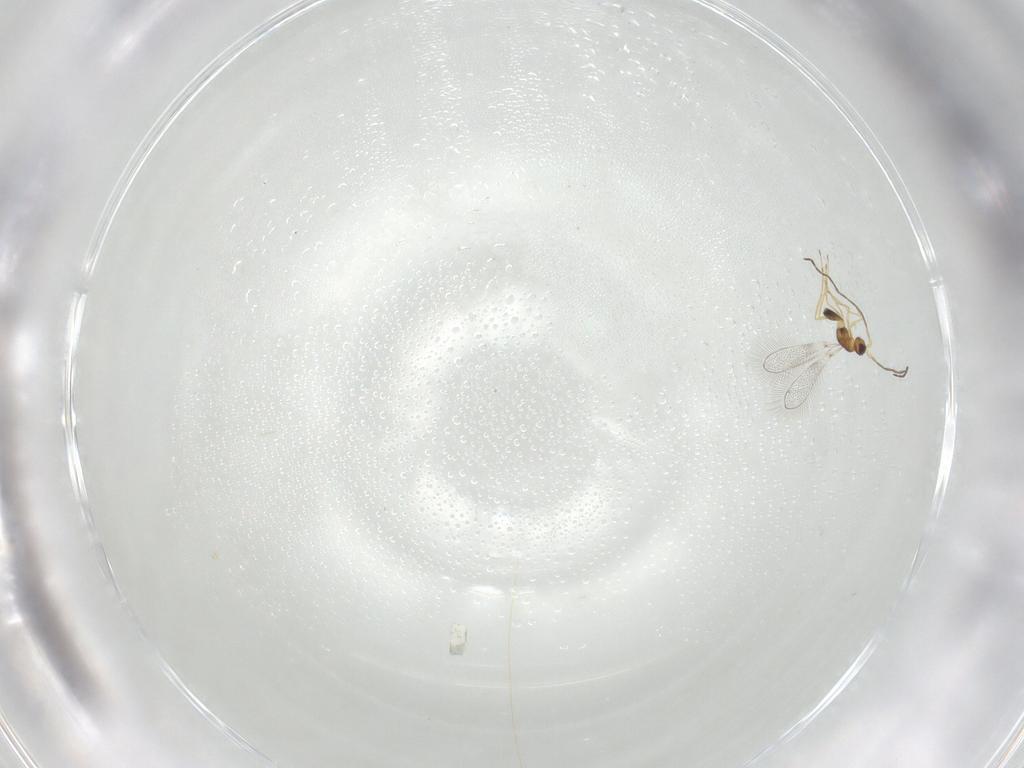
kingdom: Animalia
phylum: Arthropoda
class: Insecta
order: Hymenoptera
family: Mymaridae
